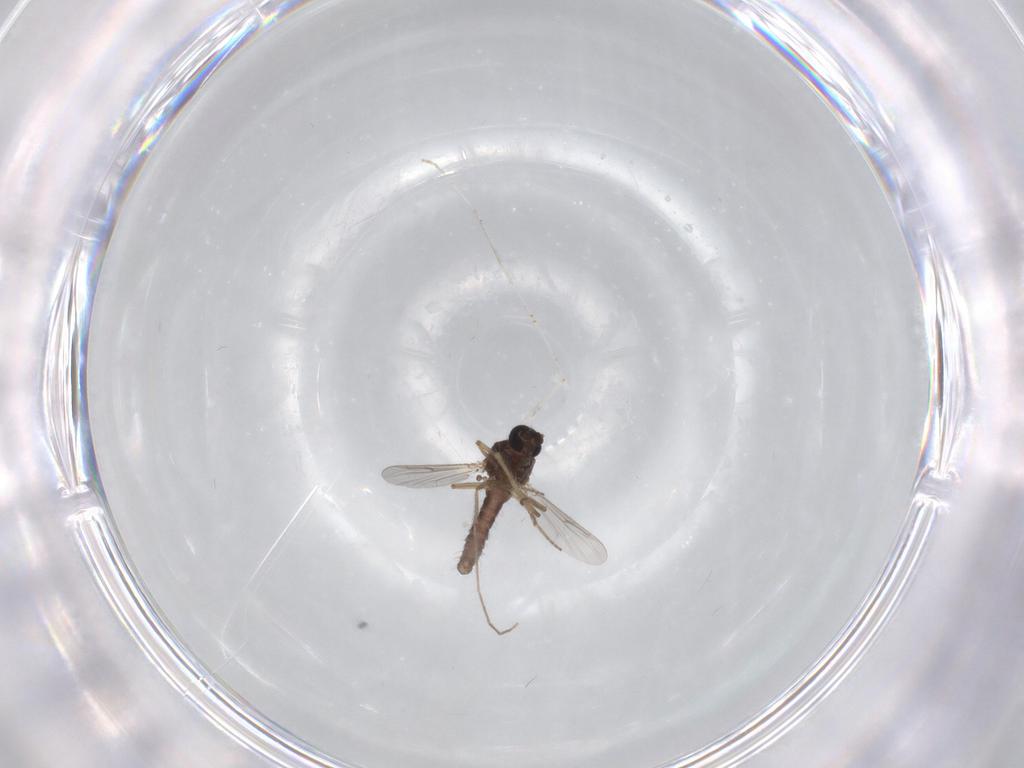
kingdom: Animalia
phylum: Arthropoda
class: Insecta
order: Diptera
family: Ceratopogonidae
